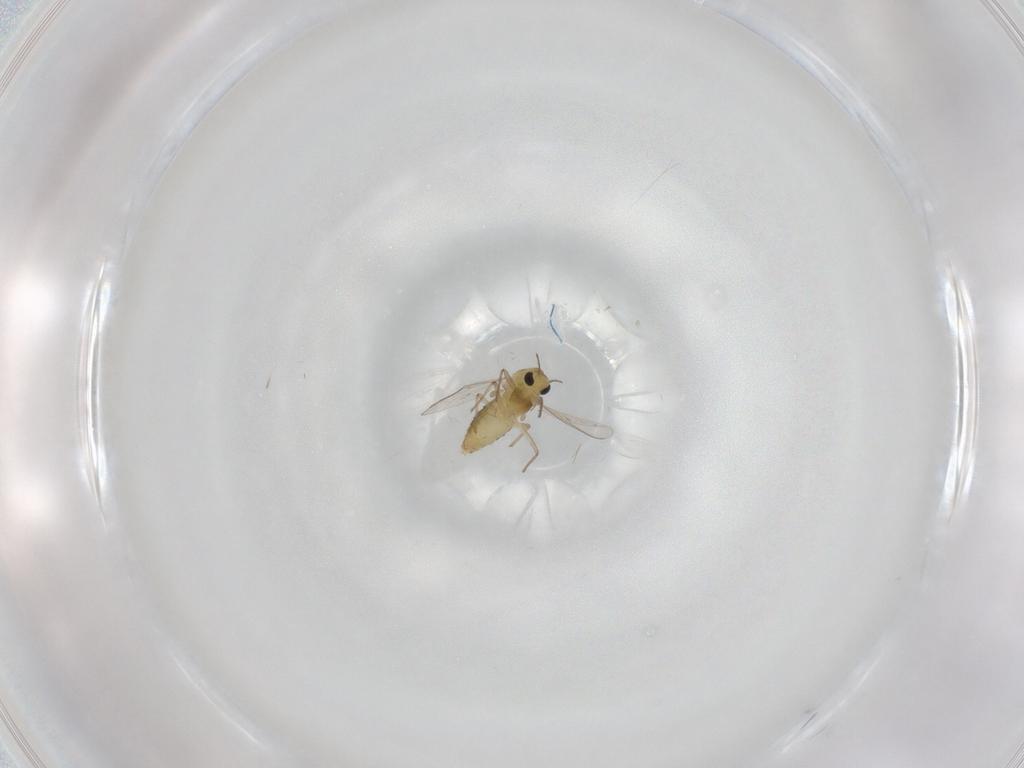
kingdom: Animalia
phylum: Arthropoda
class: Insecta
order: Diptera
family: Chironomidae
